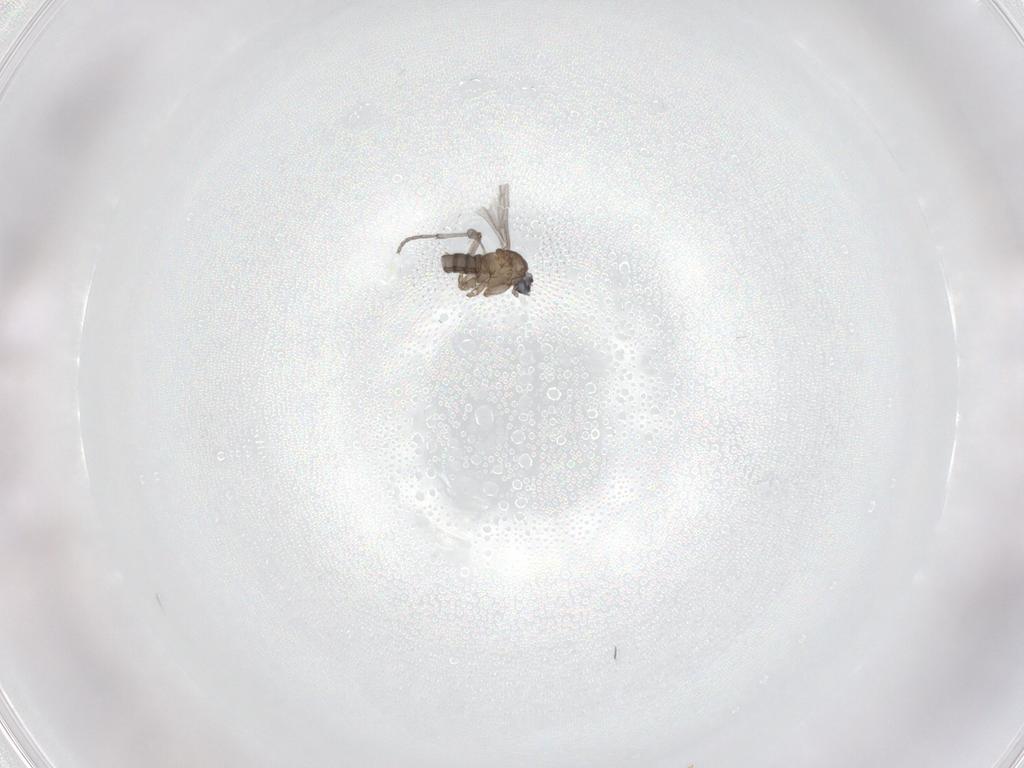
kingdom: Animalia
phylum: Arthropoda
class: Insecta
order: Diptera
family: Sciaridae
